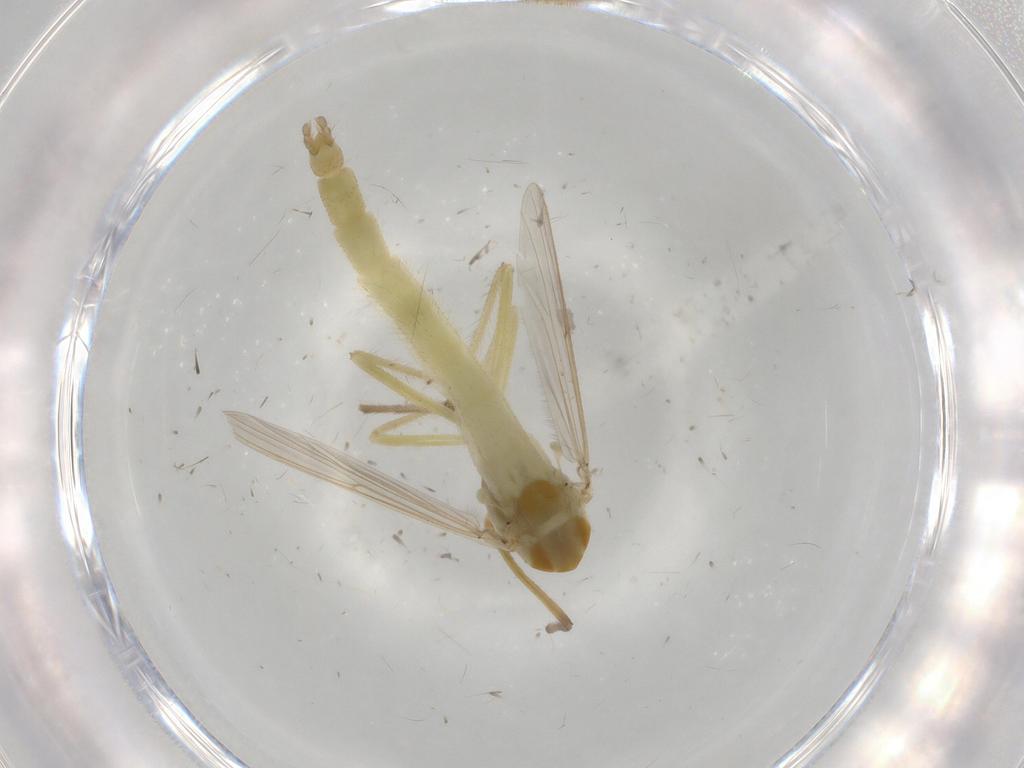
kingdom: Animalia
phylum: Arthropoda
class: Insecta
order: Diptera
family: Chironomidae
